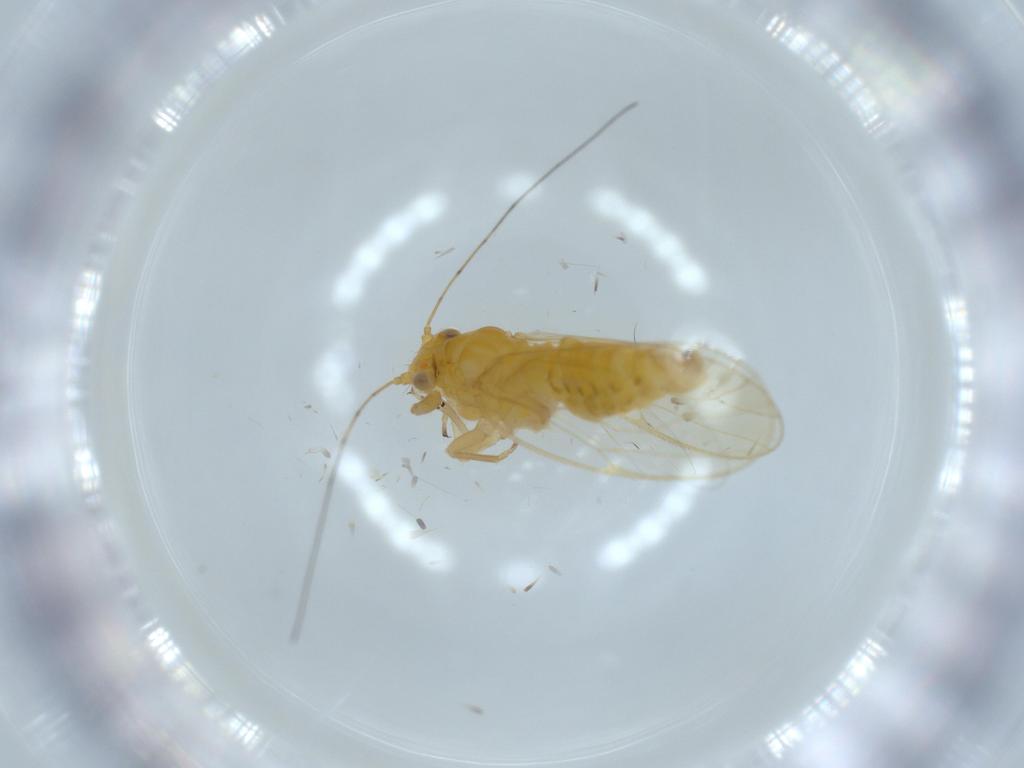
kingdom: Animalia
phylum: Arthropoda
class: Insecta
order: Hemiptera
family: Psyllidae
